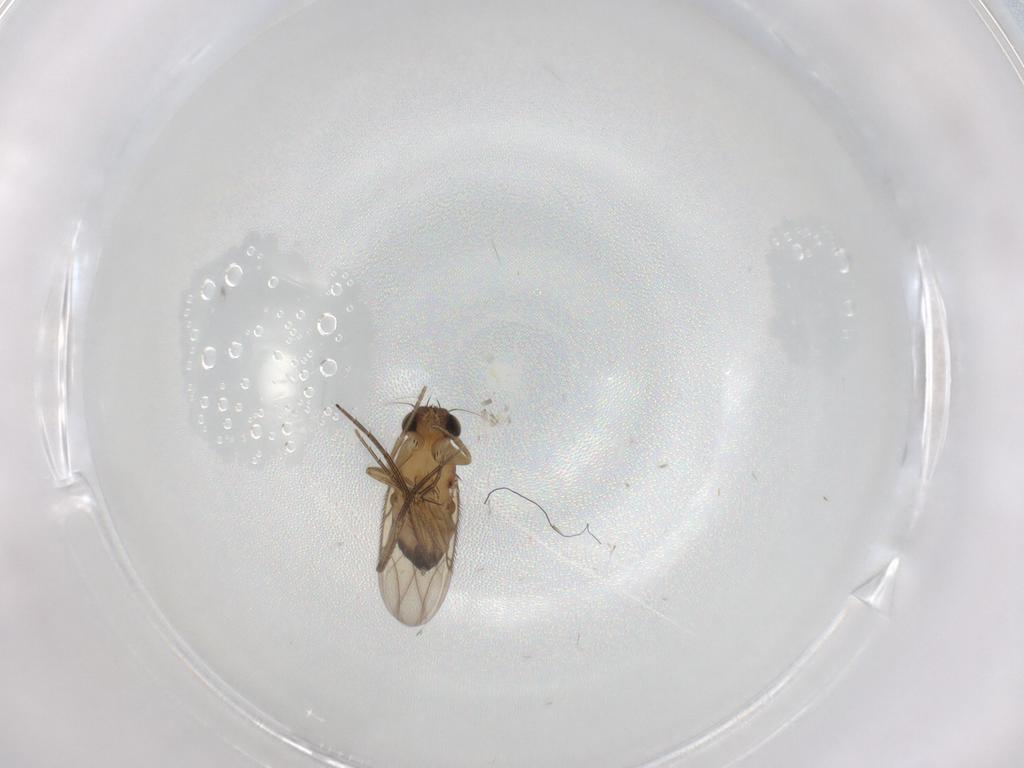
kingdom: Animalia
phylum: Arthropoda
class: Insecta
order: Diptera
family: Phoridae
